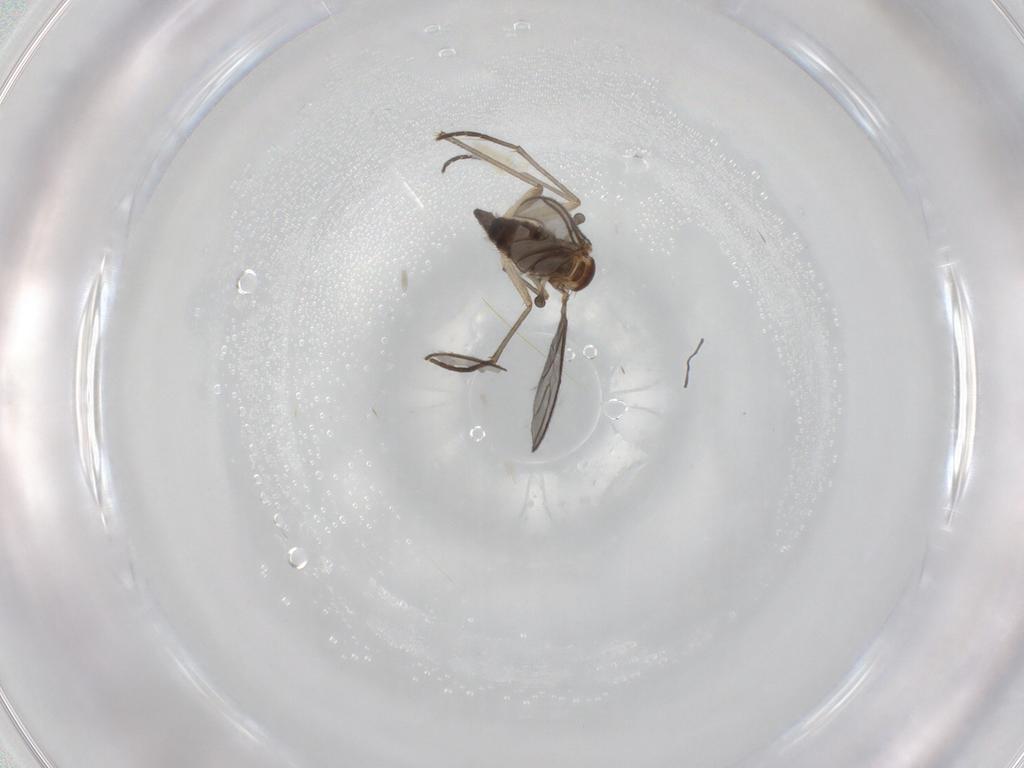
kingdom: Animalia
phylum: Arthropoda
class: Insecta
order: Diptera
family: Sciaridae
